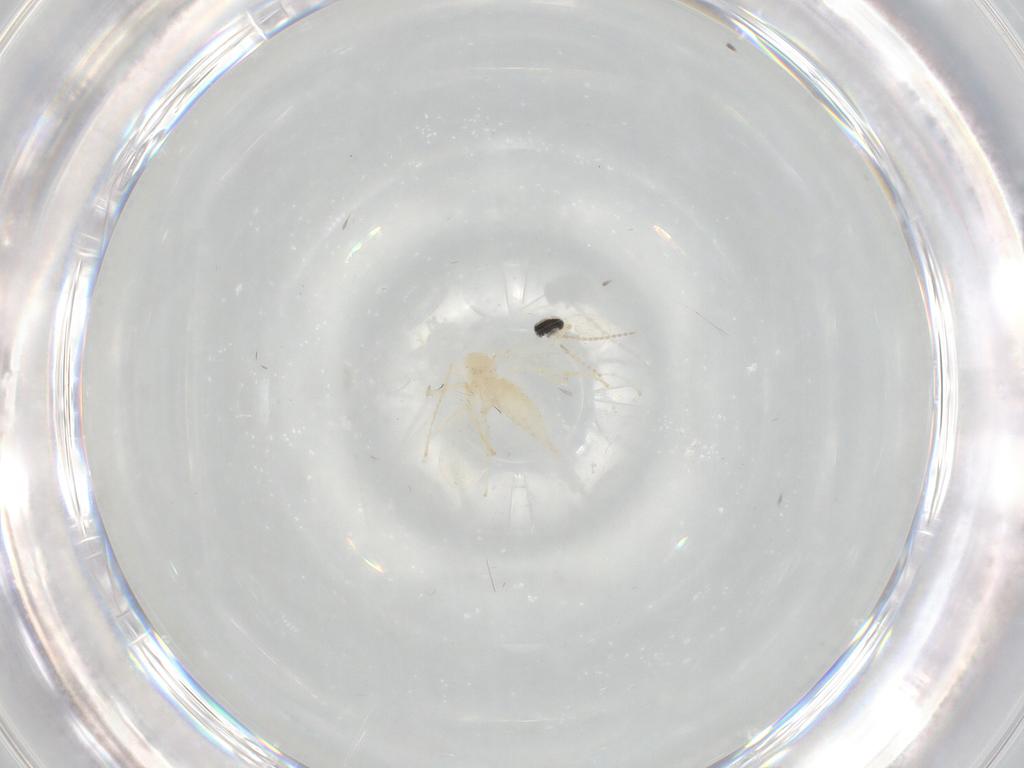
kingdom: Animalia
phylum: Arthropoda
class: Insecta
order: Diptera
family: Cecidomyiidae
